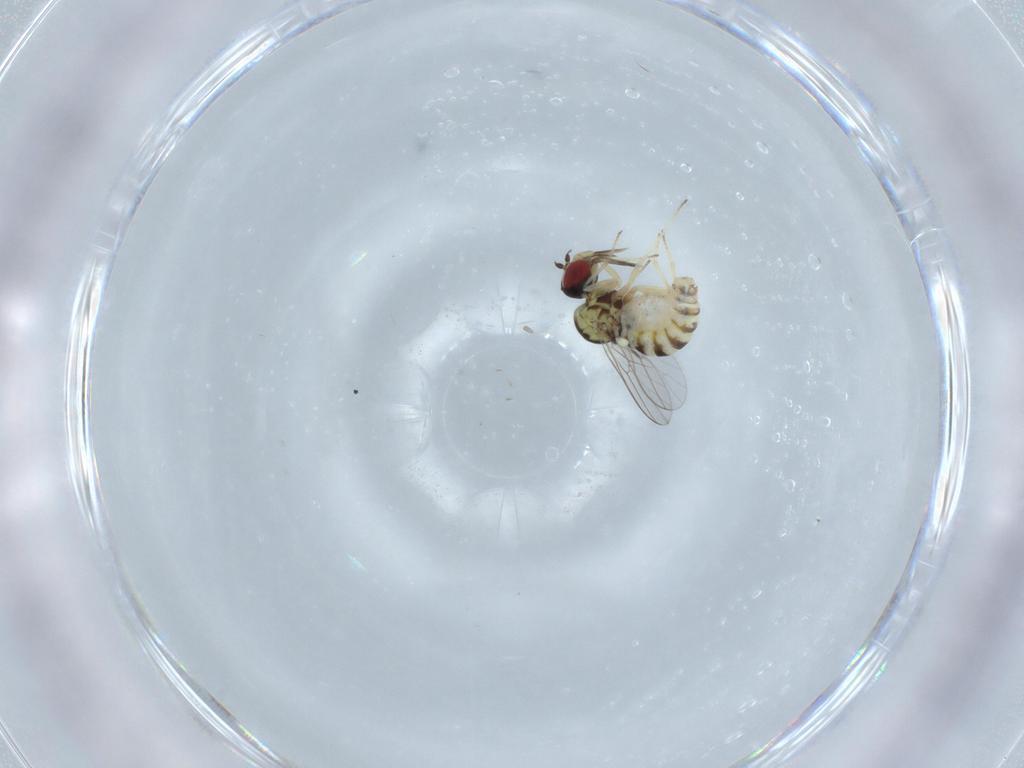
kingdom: Animalia
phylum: Arthropoda
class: Insecta
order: Diptera
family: Bombyliidae
